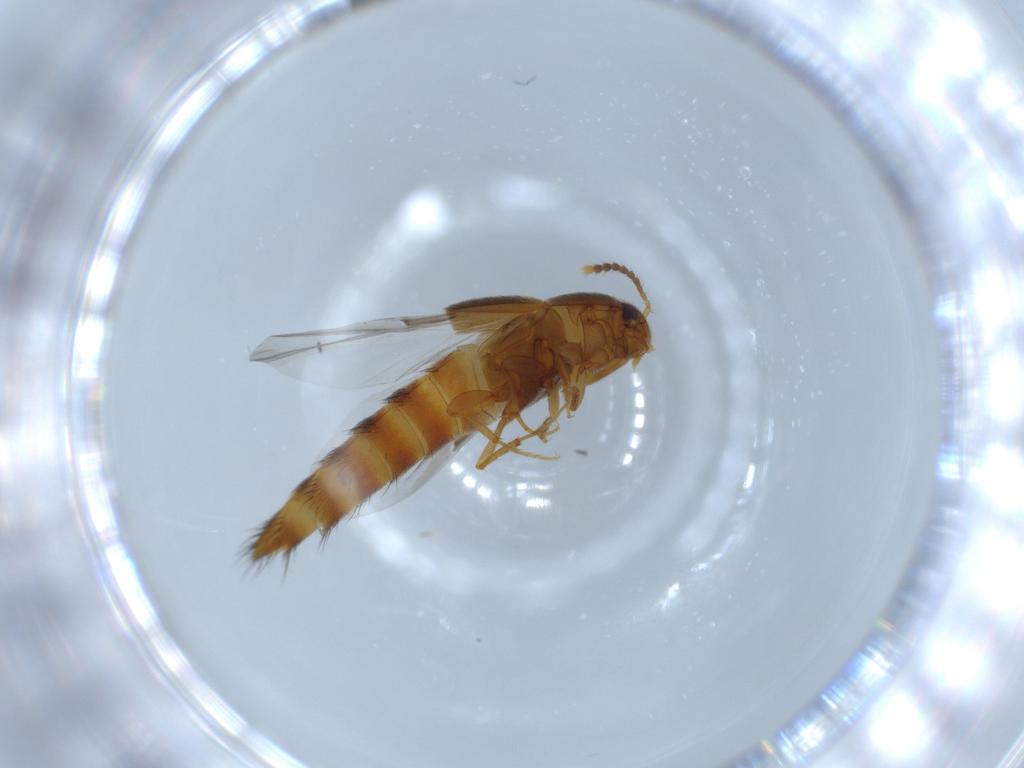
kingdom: Animalia
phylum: Arthropoda
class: Insecta
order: Coleoptera
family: Staphylinidae
